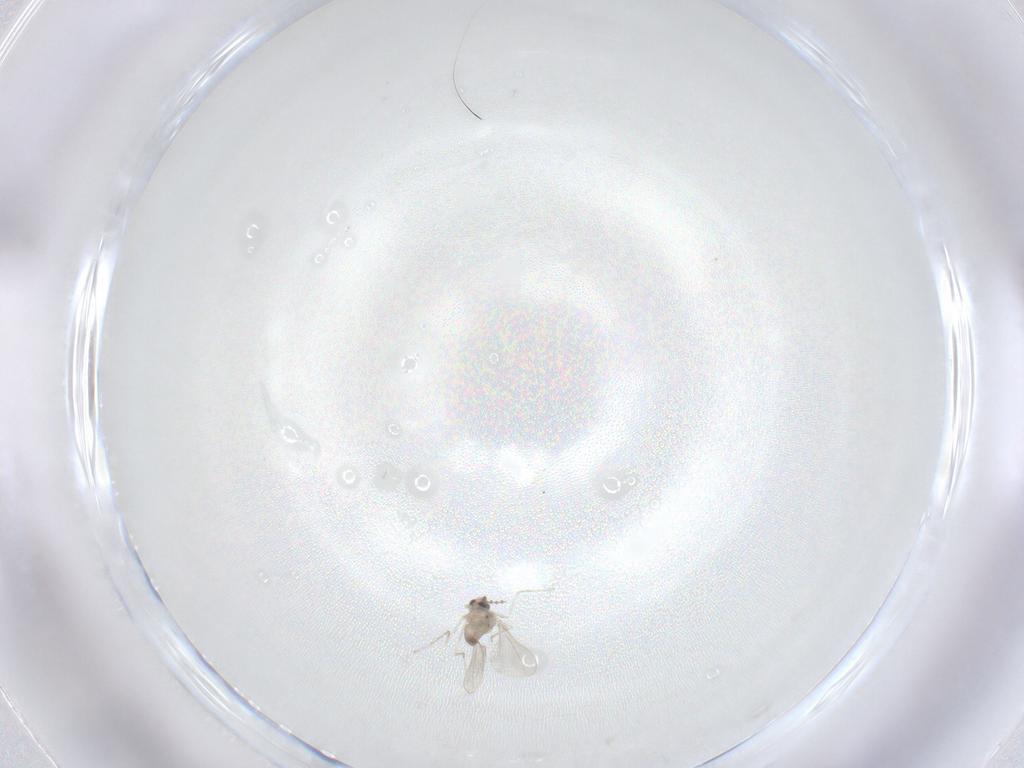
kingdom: Animalia
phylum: Arthropoda
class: Insecta
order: Diptera
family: Cecidomyiidae
